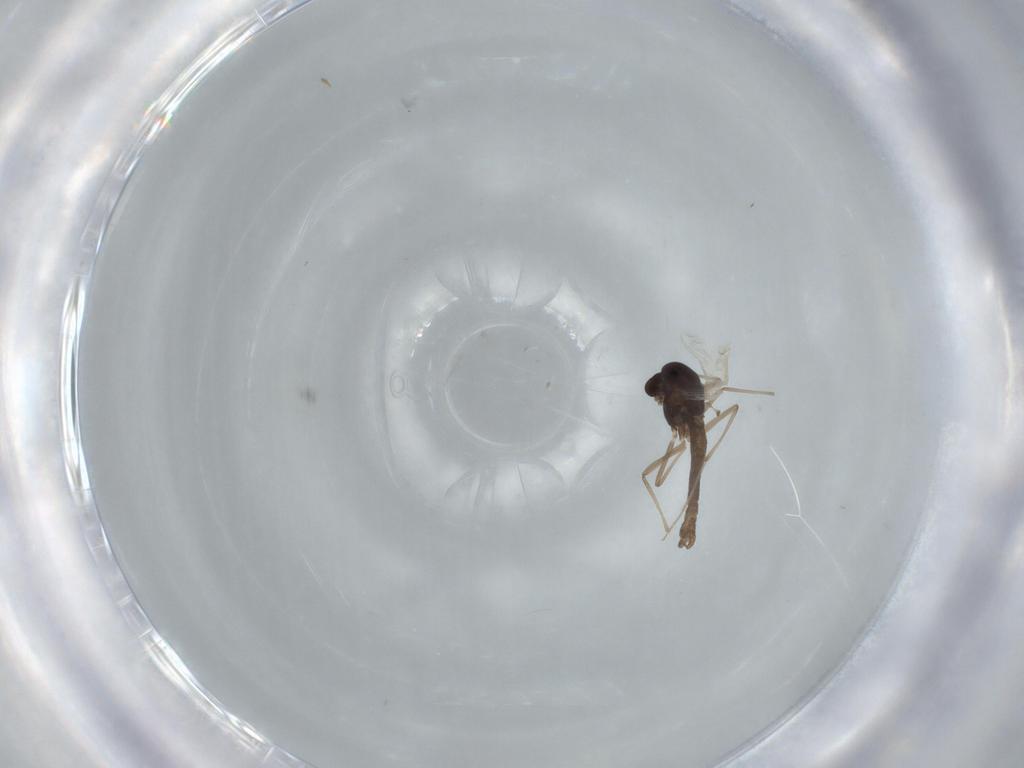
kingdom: Animalia
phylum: Arthropoda
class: Insecta
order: Diptera
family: Chironomidae
